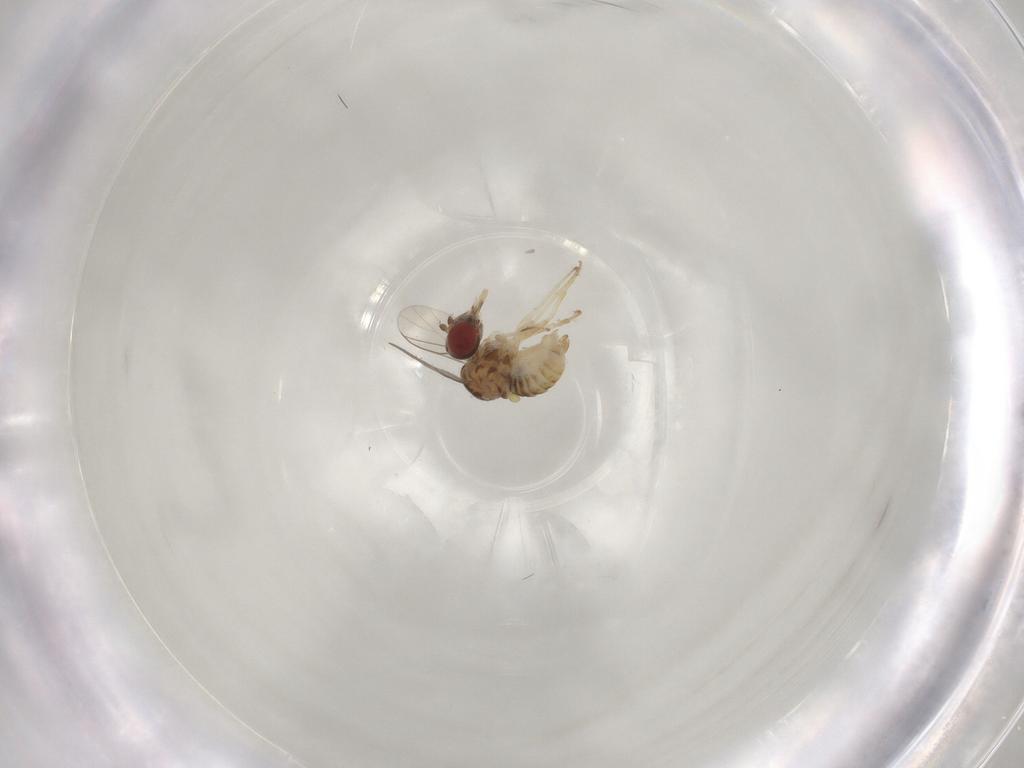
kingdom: Animalia
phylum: Arthropoda
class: Insecta
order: Diptera
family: Bombyliidae
